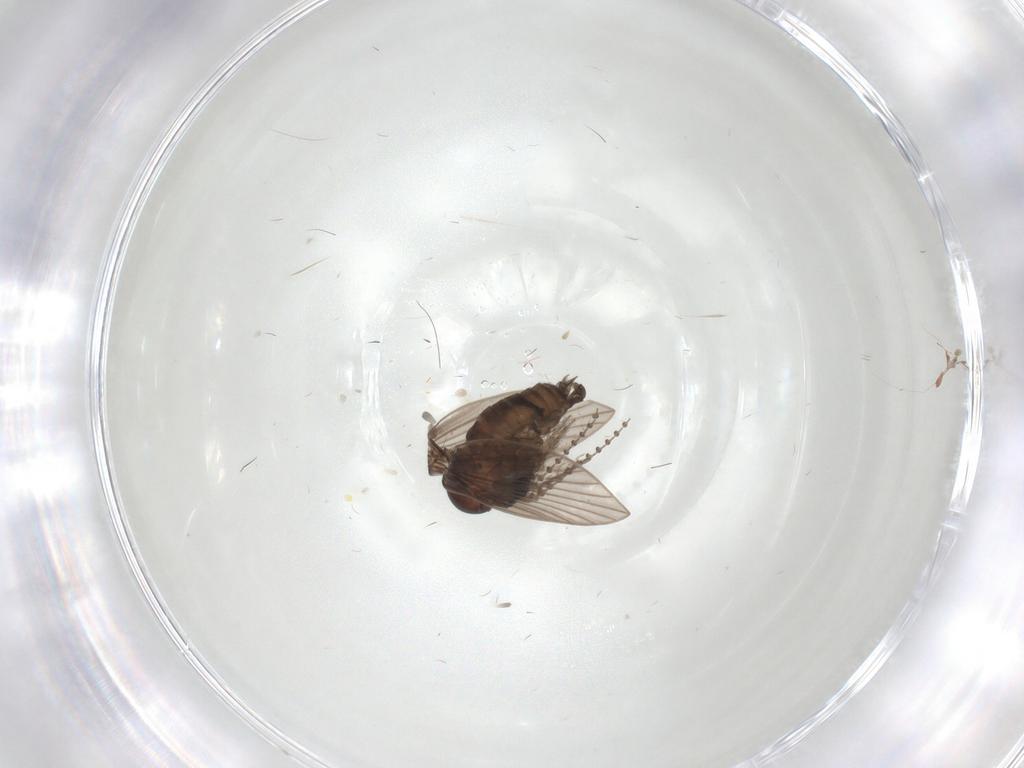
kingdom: Animalia
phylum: Arthropoda
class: Insecta
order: Diptera
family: Psychodidae
